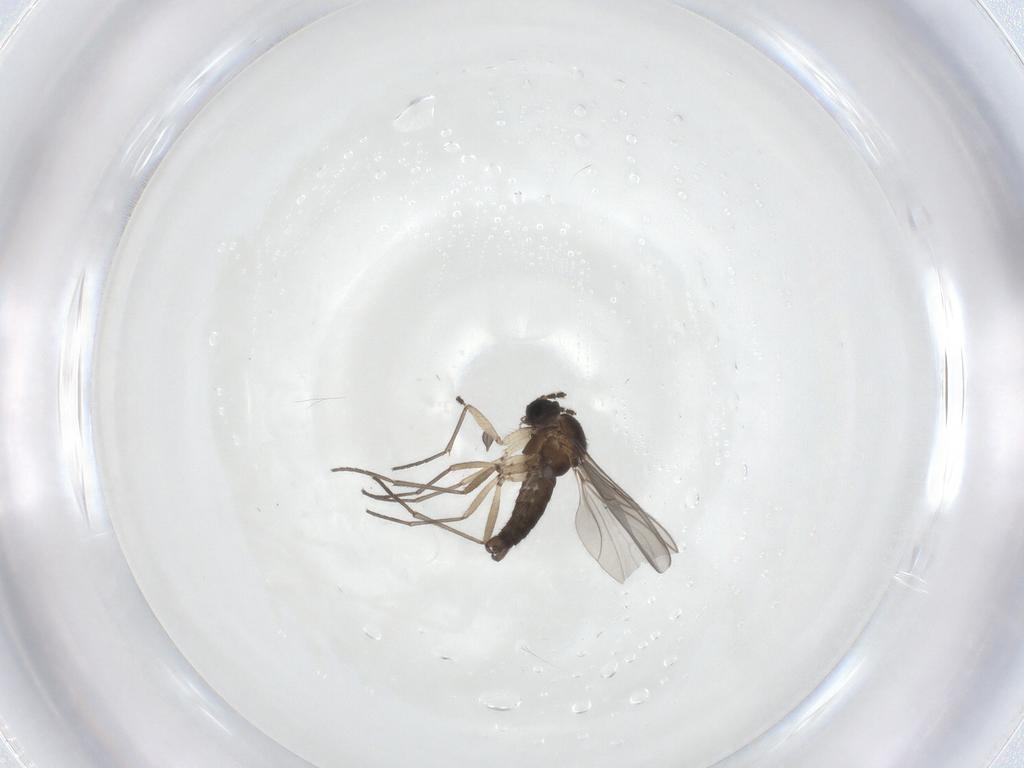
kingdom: Animalia
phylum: Arthropoda
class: Insecta
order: Diptera
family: Sciaridae
